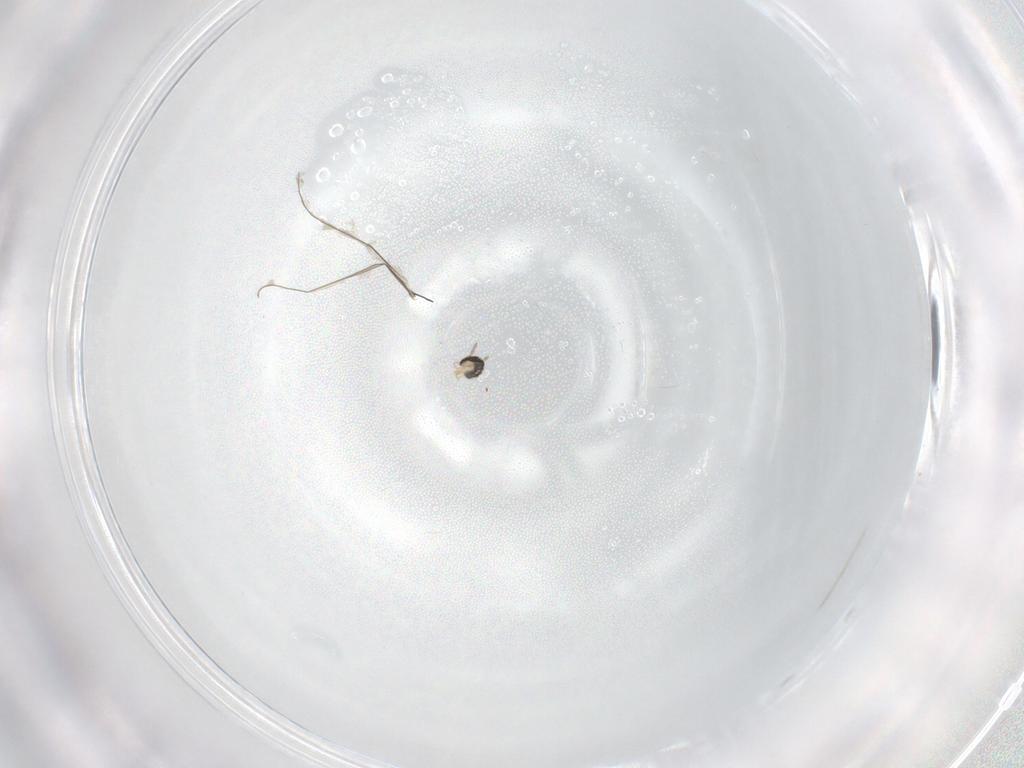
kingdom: Animalia
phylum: Arthropoda
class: Insecta
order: Diptera
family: Cecidomyiidae
